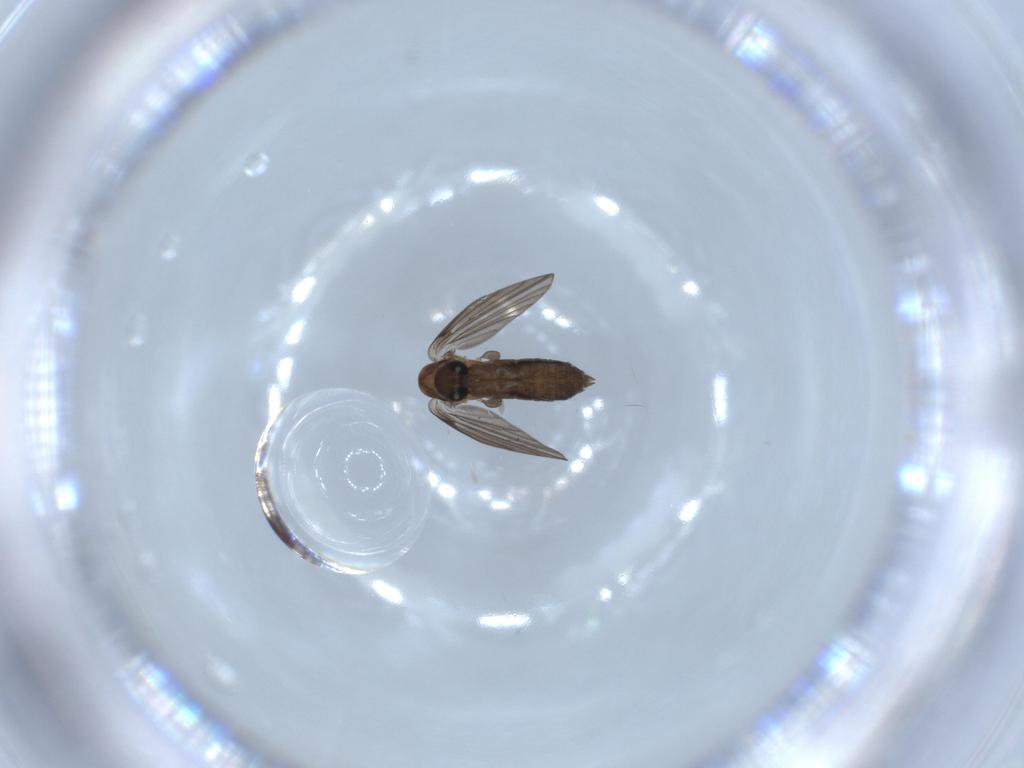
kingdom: Animalia
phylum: Arthropoda
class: Insecta
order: Diptera
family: Psychodidae
